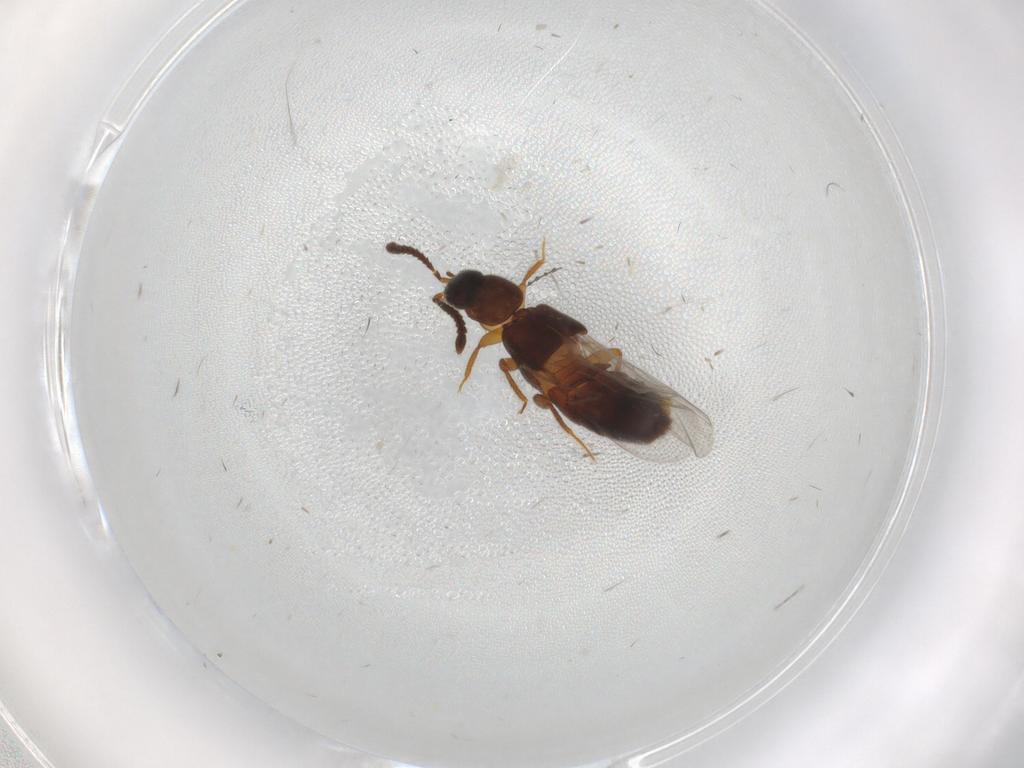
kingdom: Animalia
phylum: Arthropoda
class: Insecta
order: Coleoptera
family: Staphylinidae
